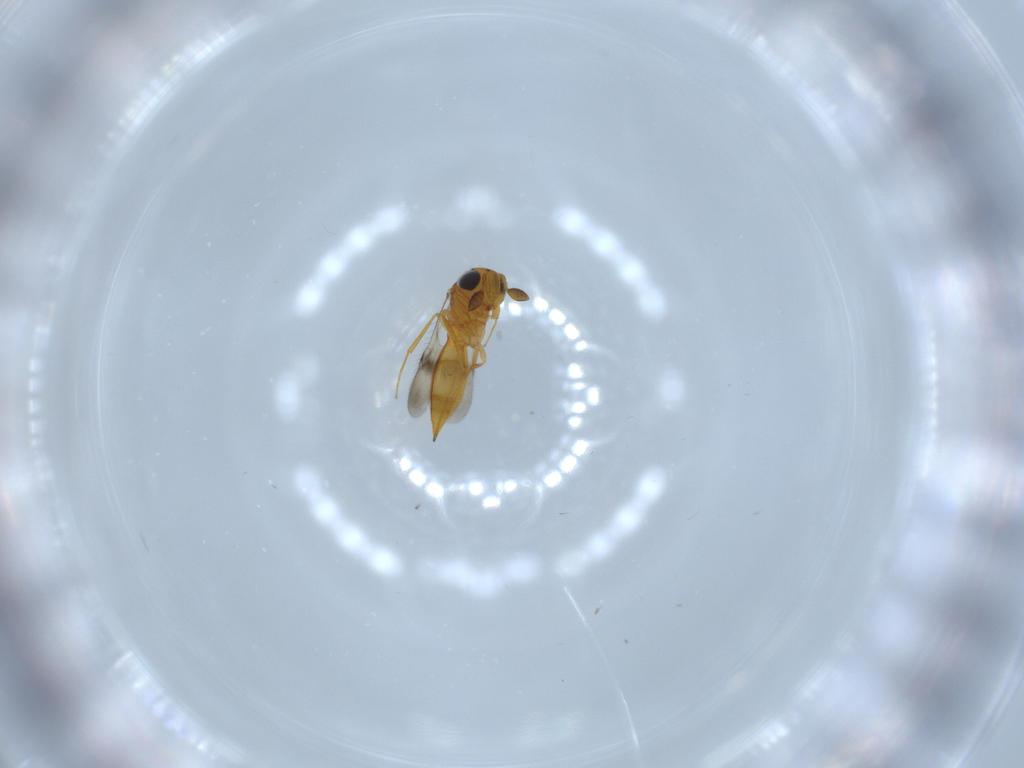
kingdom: Animalia
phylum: Arthropoda
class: Insecta
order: Hymenoptera
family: Scelionidae
